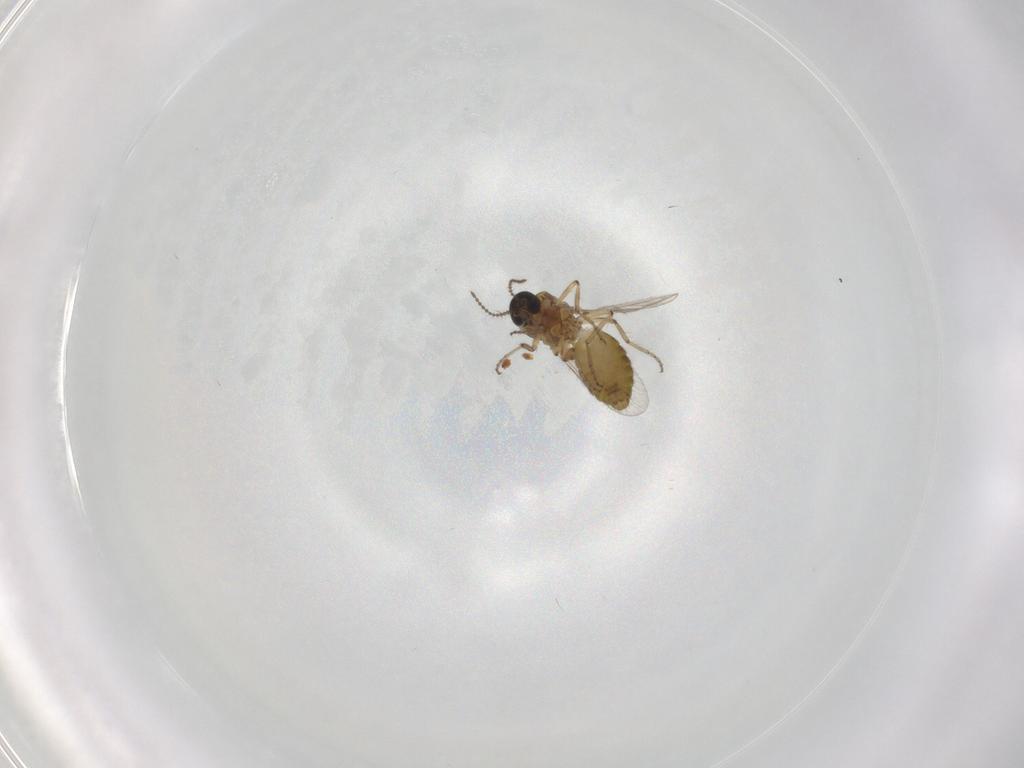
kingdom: Animalia
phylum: Arthropoda
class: Insecta
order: Diptera
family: Ceratopogonidae
